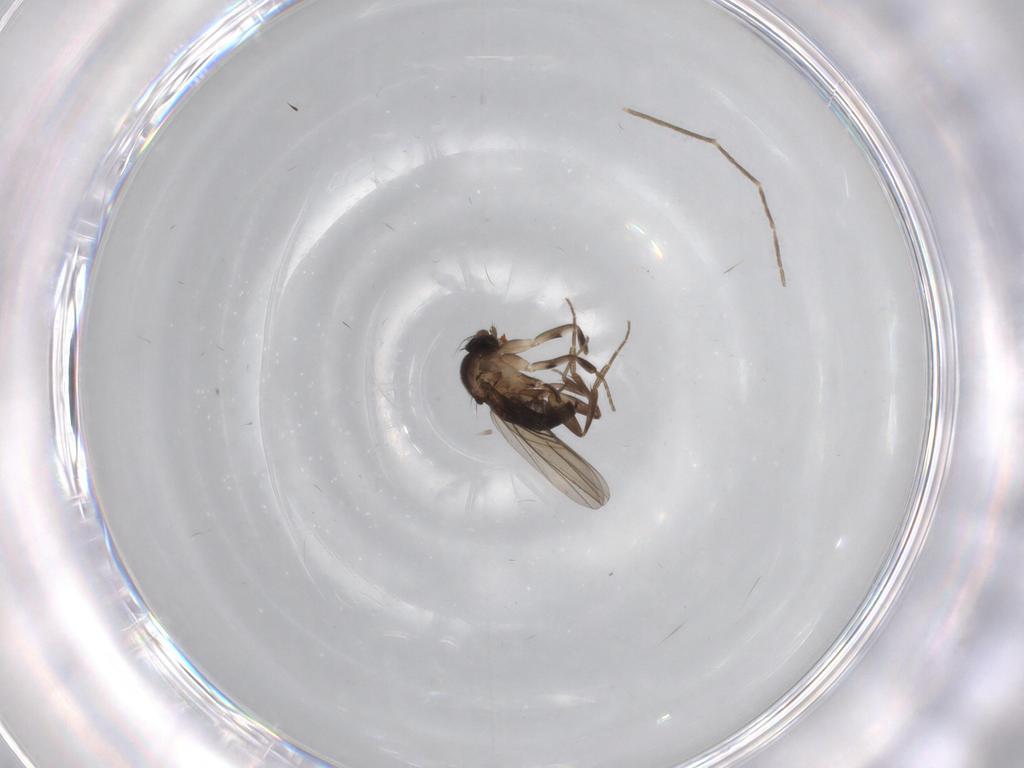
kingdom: Animalia
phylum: Arthropoda
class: Insecta
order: Diptera
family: Chironomidae
